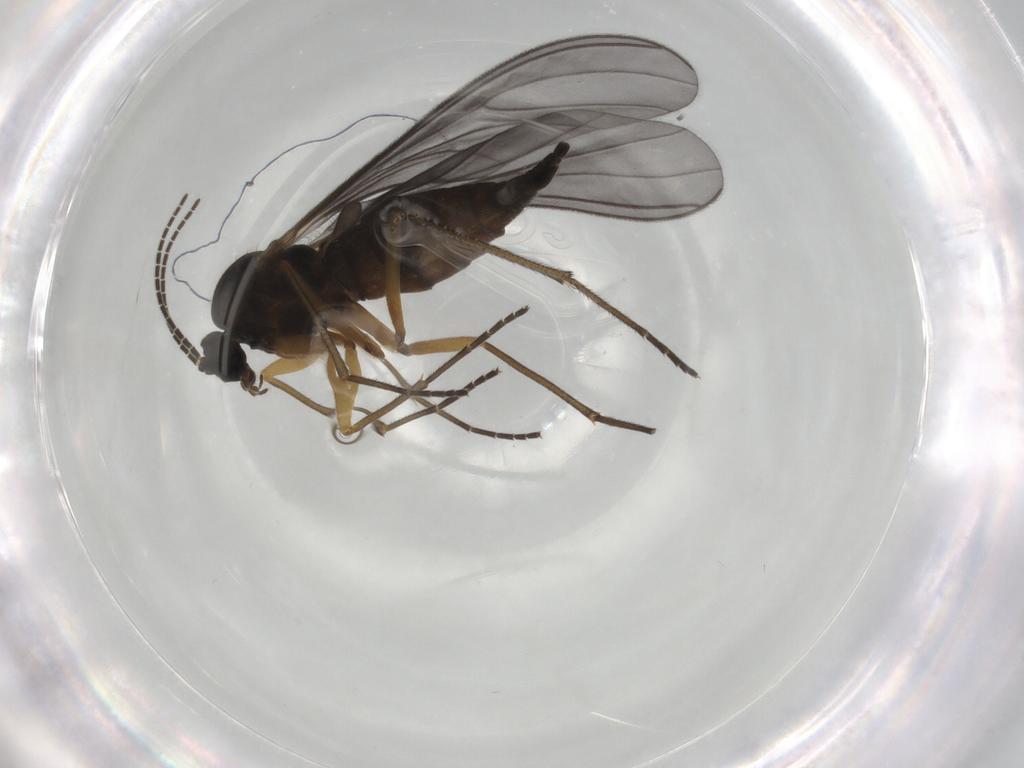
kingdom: Animalia
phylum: Arthropoda
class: Insecta
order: Diptera
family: Sciaridae
